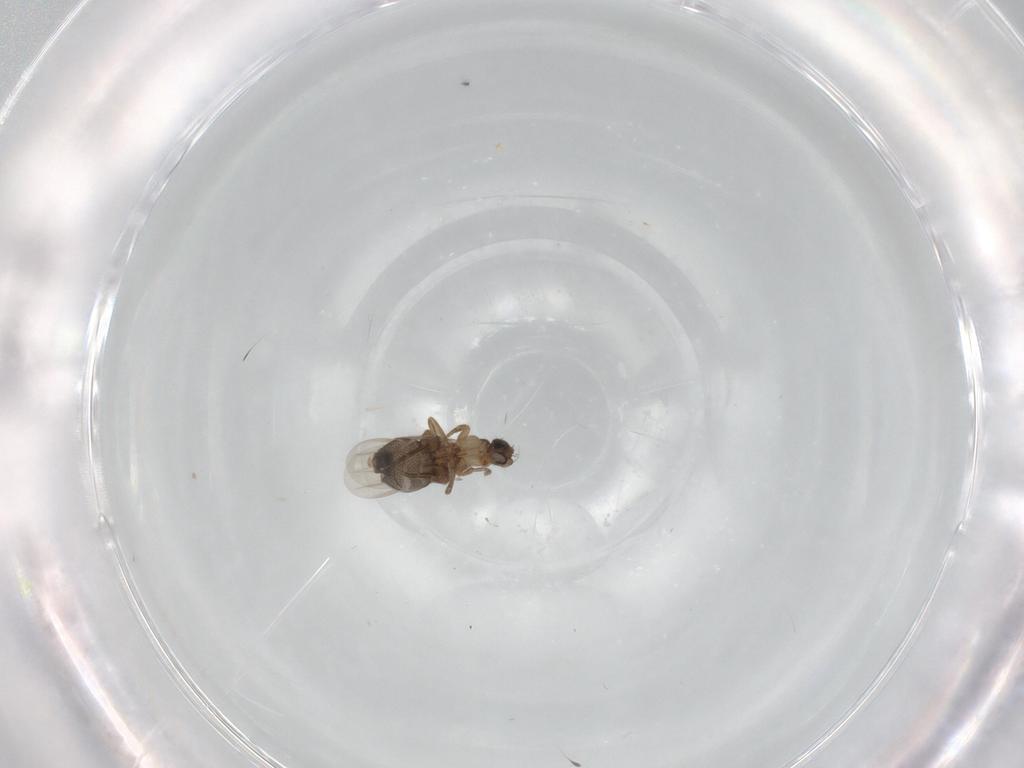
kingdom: Animalia
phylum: Arthropoda
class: Insecta
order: Diptera
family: Phoridae
